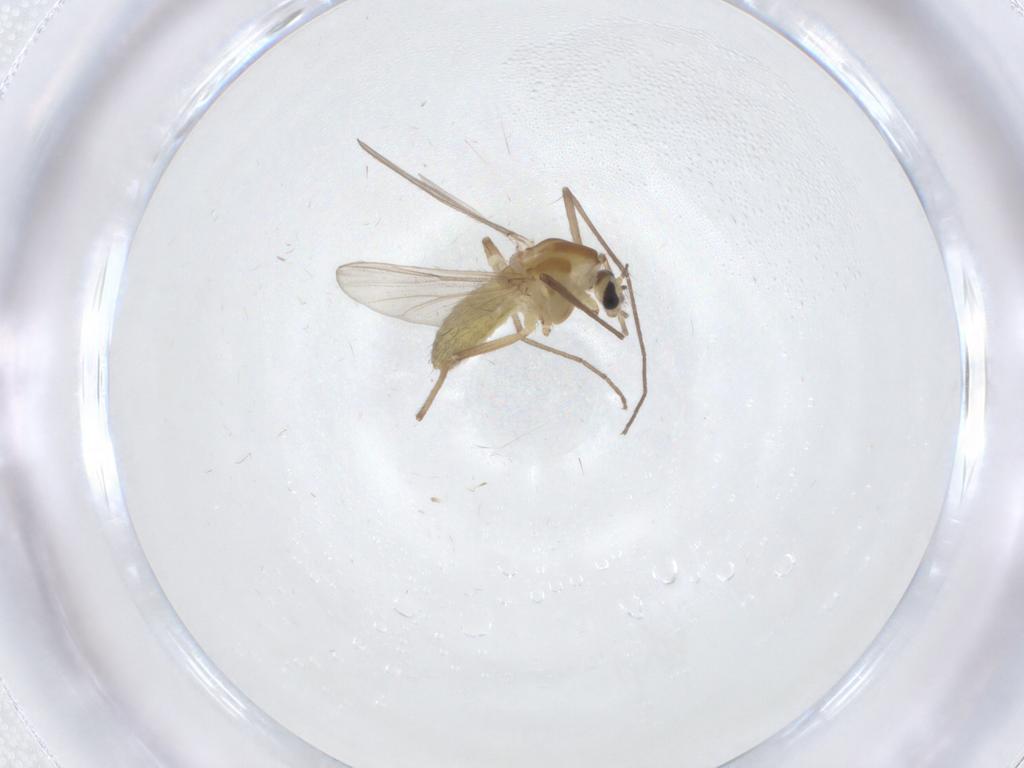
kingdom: Animalia
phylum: Arthropoda
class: Insecta
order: Diptera
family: Chironomidae
